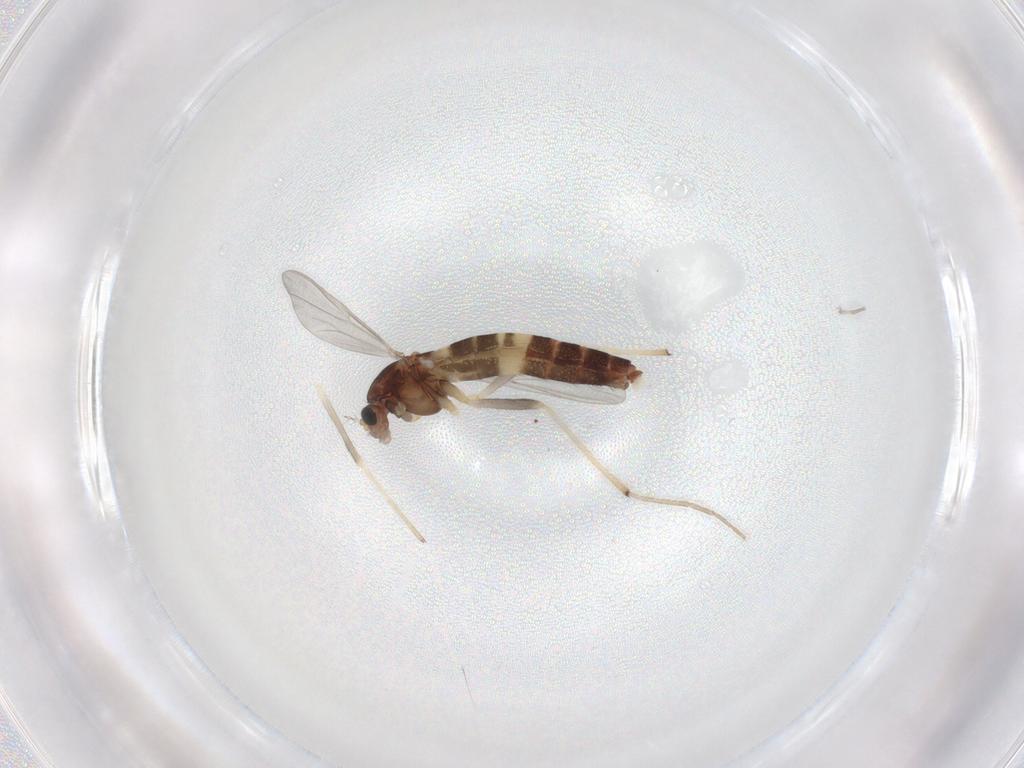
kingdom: Animalia
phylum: Arthropoda
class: Insecta
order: Diptera
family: Chironomidae
